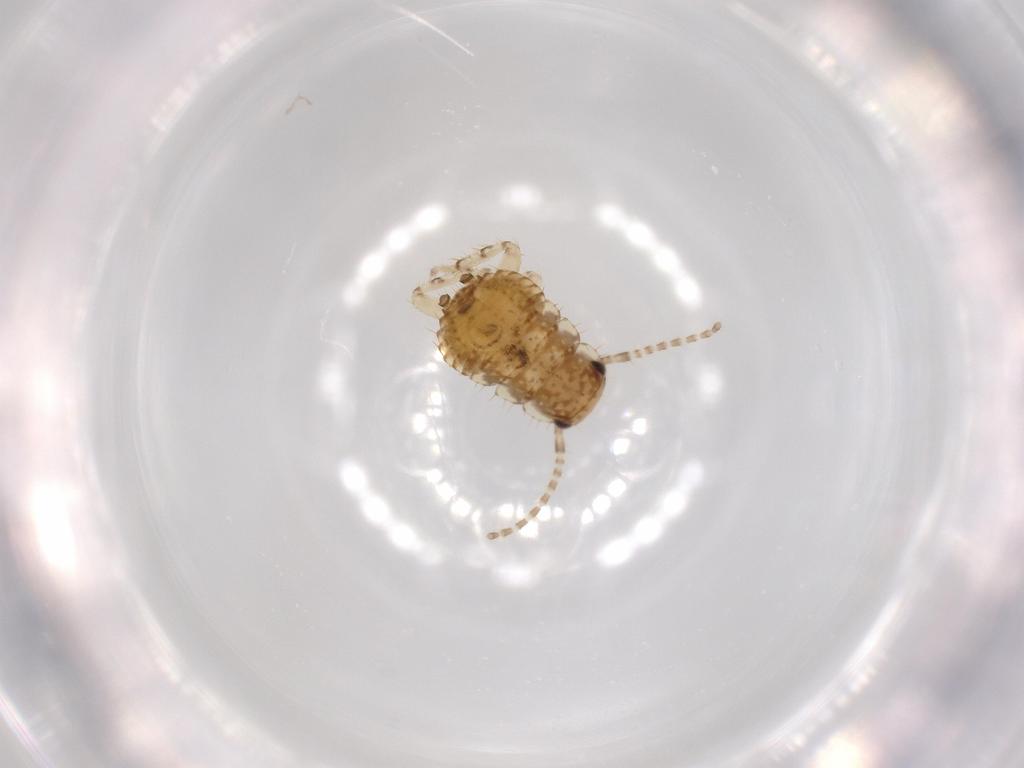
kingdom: Animalia
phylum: Arthropoda
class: Insecta
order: Blattodea
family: Ectobiidae
